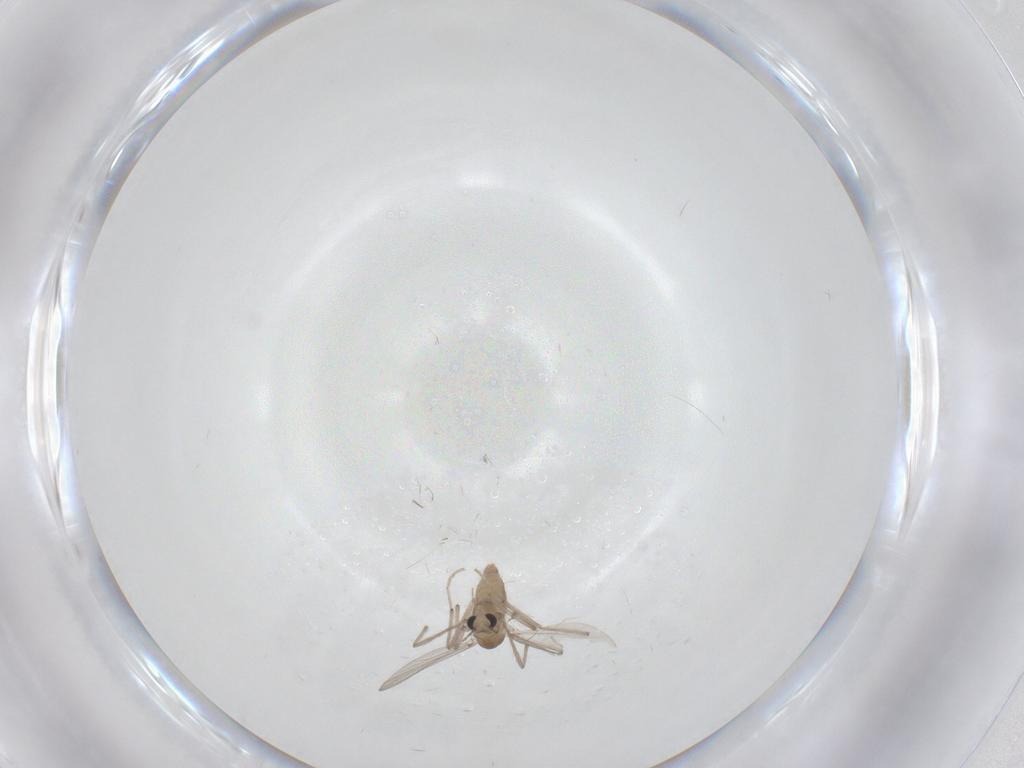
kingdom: Animalia
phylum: Arthropoda
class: Insecta
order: Diptera
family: Chironomidae
